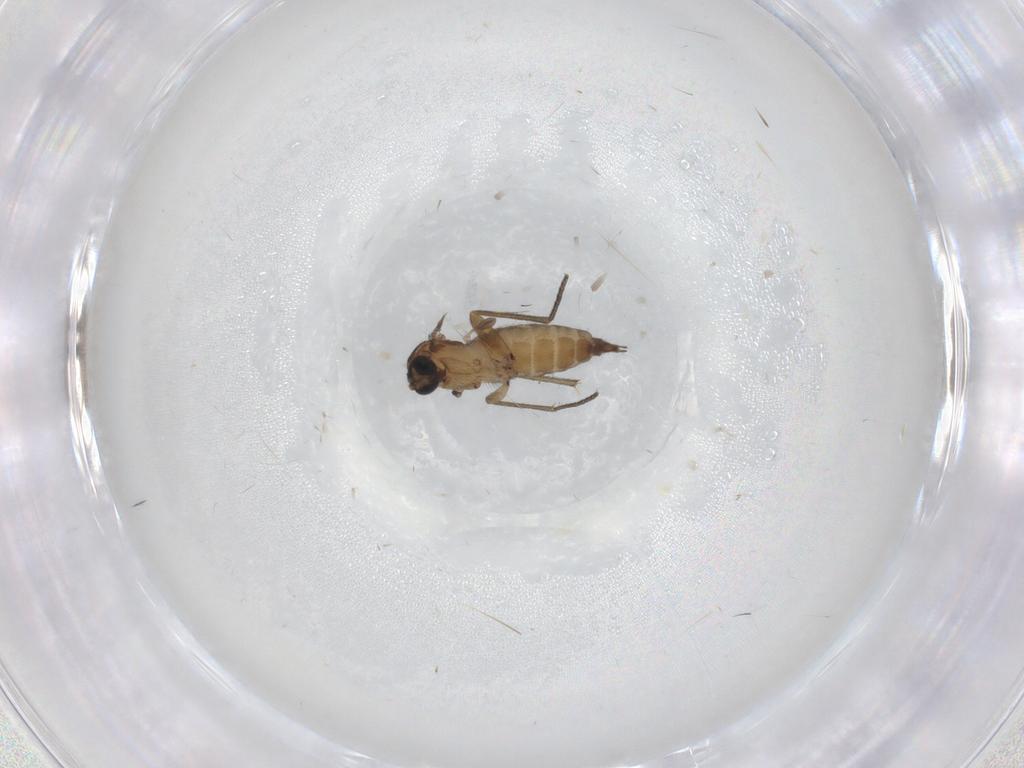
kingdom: Animalia
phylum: Arthropoda
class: Insecta
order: Diptera
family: Sciaridae
